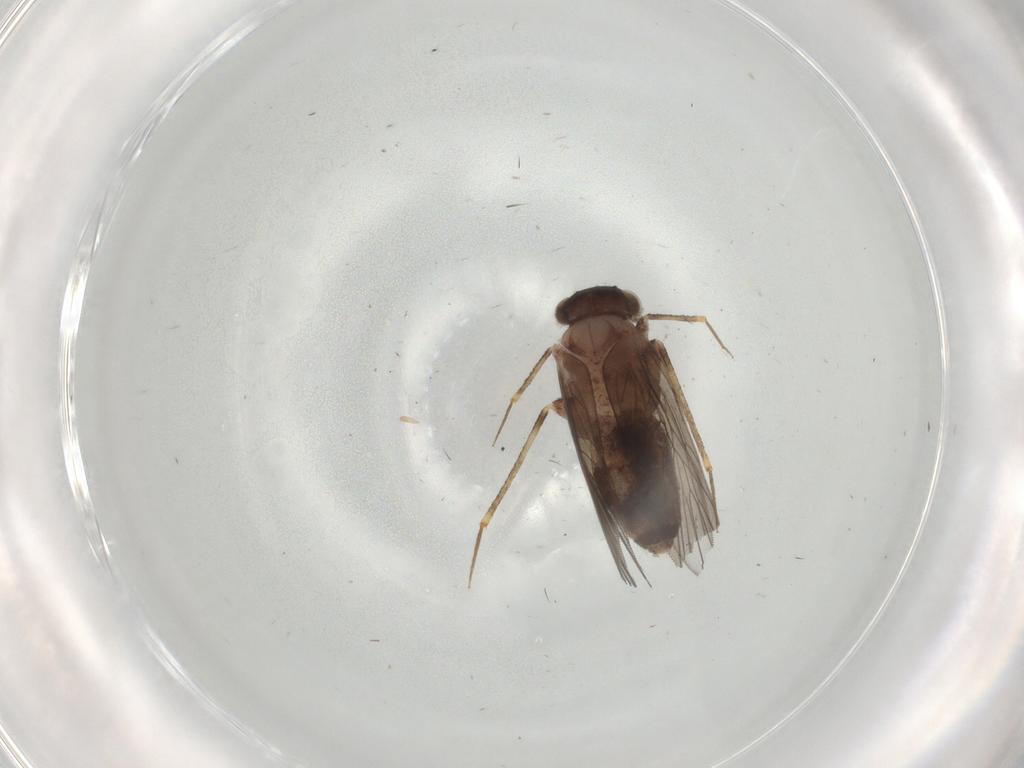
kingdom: Animalia
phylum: Arthropoda
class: Insecta
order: Psocodea
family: Lepidopsocidae
